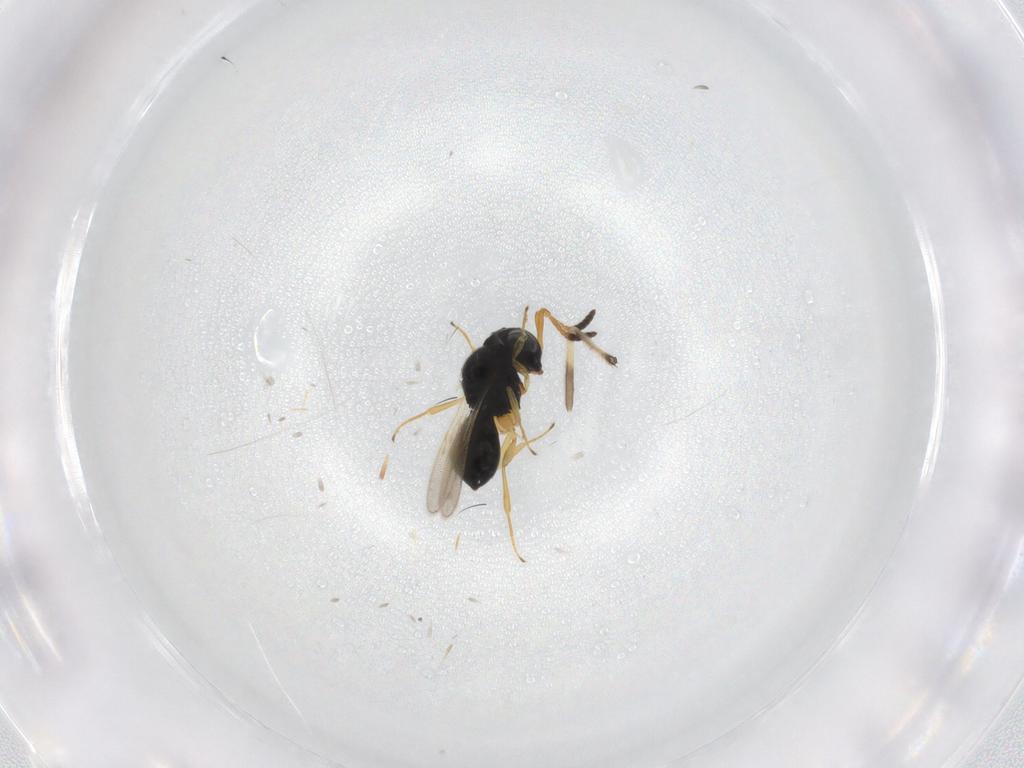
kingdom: Animalia
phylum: Arthropoda
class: Insecta
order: Hymenoptera
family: Scelionidae
